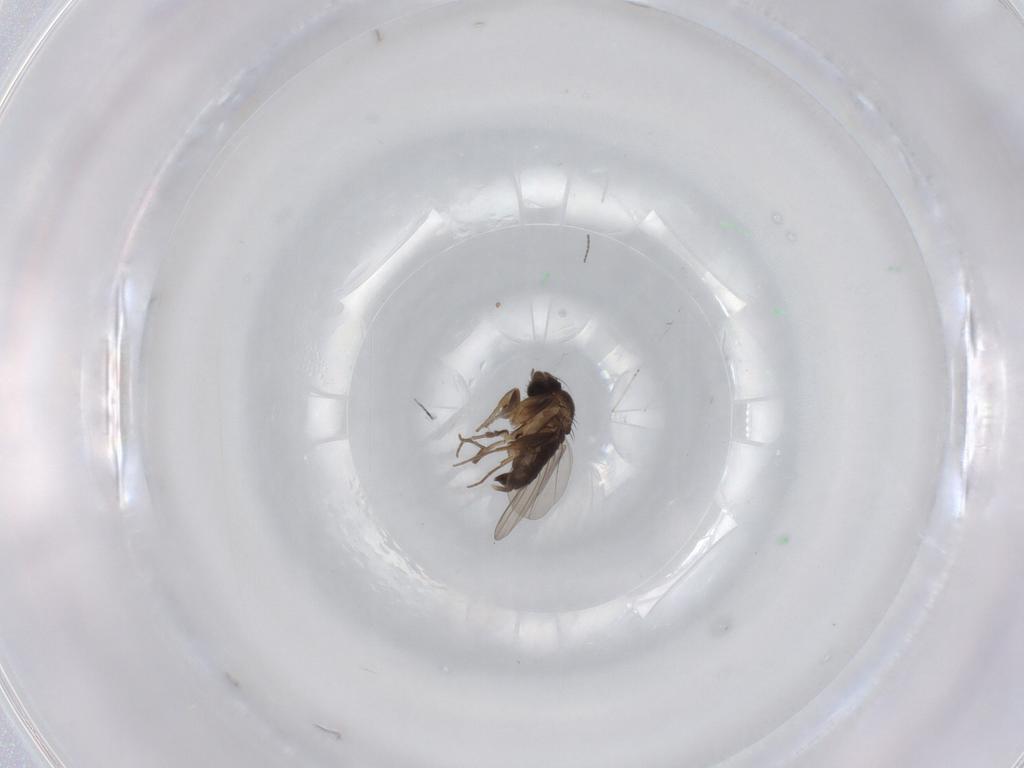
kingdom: Animalia
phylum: Arthropoda
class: Insecta
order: Diptera
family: Phoridae
